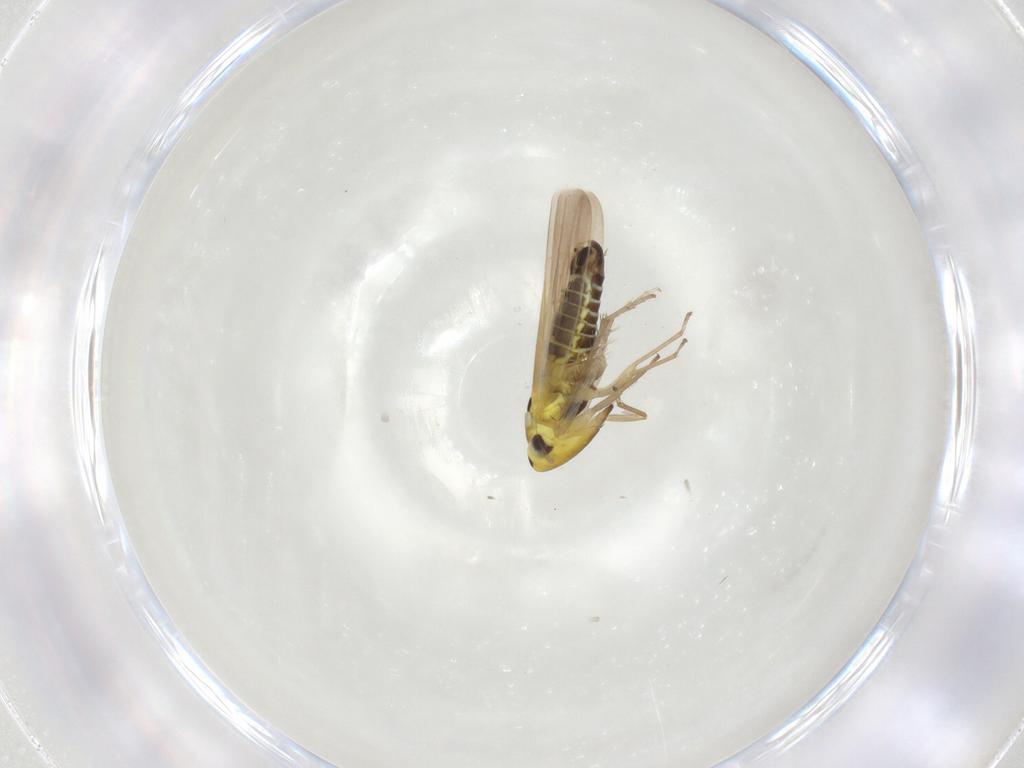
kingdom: Animalia
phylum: Arthropoda
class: Insecta
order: Hemiptera
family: Cicadellidae
